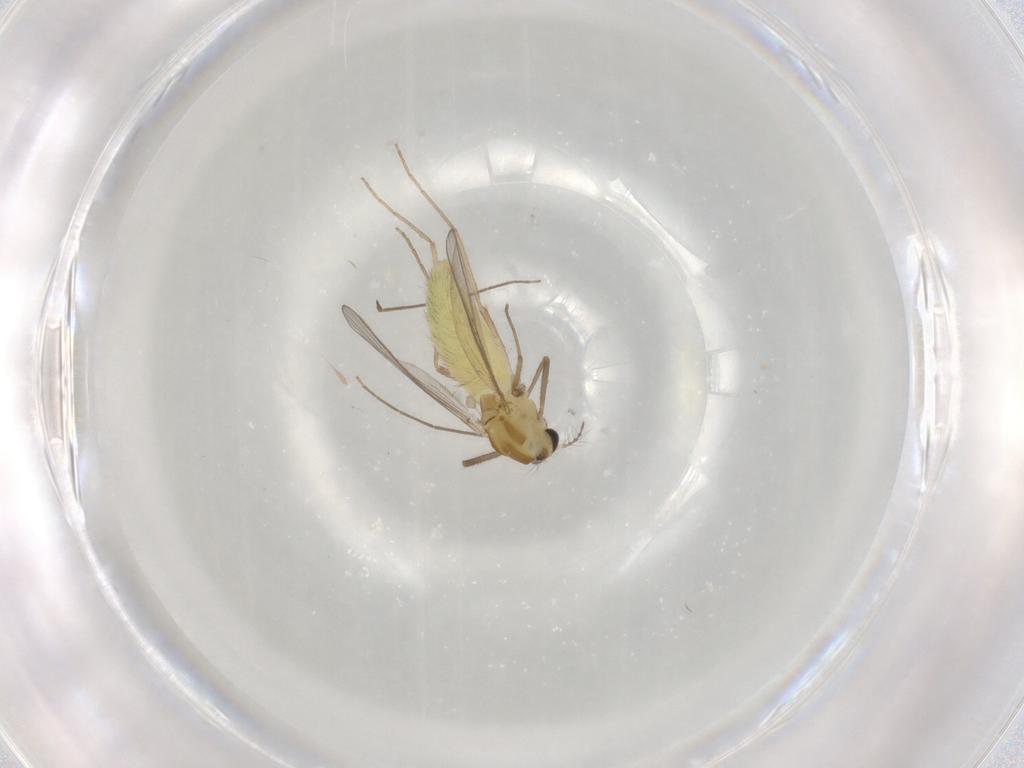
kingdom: Animalia
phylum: Arthropoda
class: Insecta
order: Diptera
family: Chironomidae
